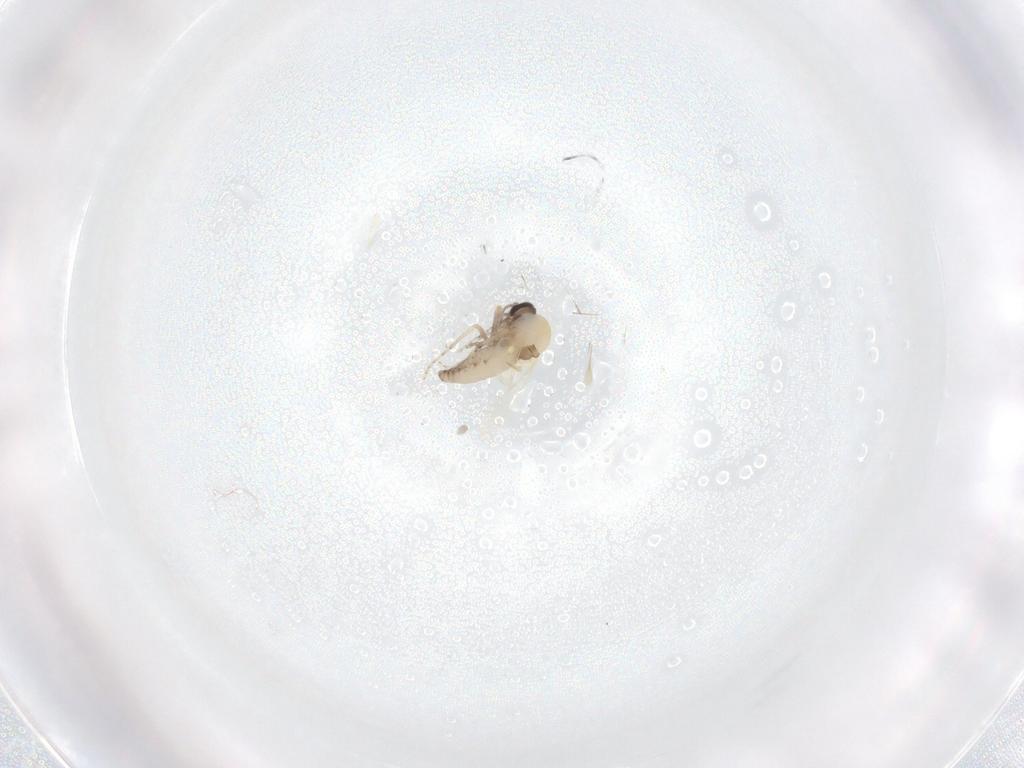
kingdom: Animalia
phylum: Arthropoda
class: Insecta
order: Diptera
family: Ceratopogonidae
